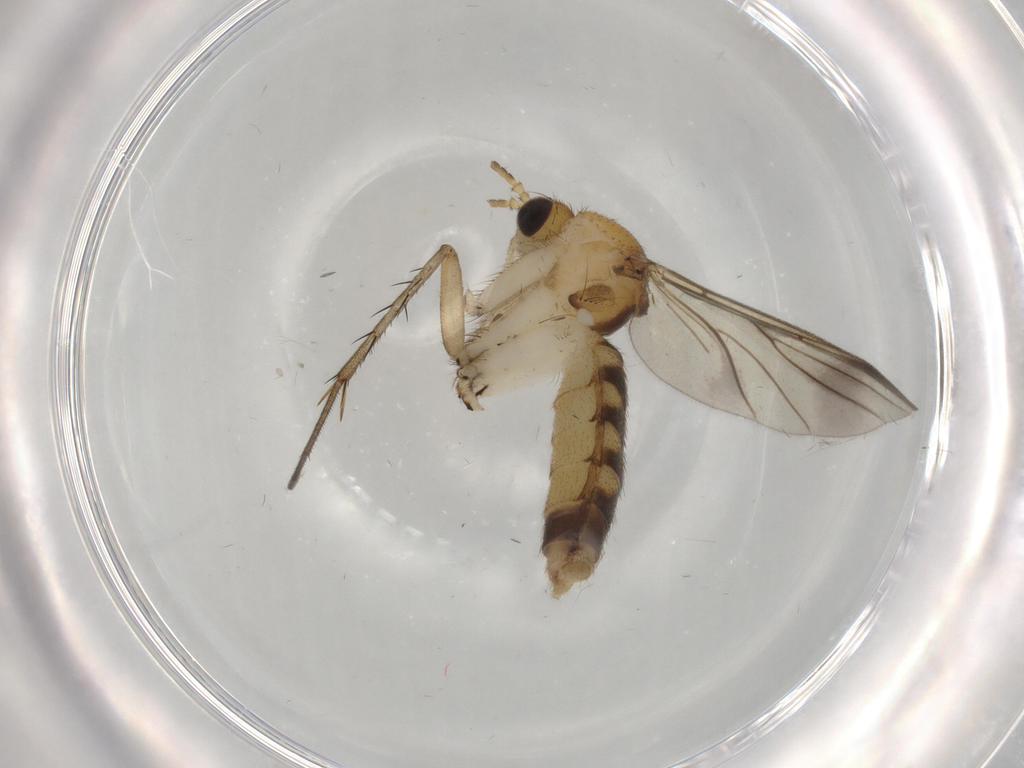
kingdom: Animalia
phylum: Arthropoda
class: Insecta
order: Diptera
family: Mycetophilidae
